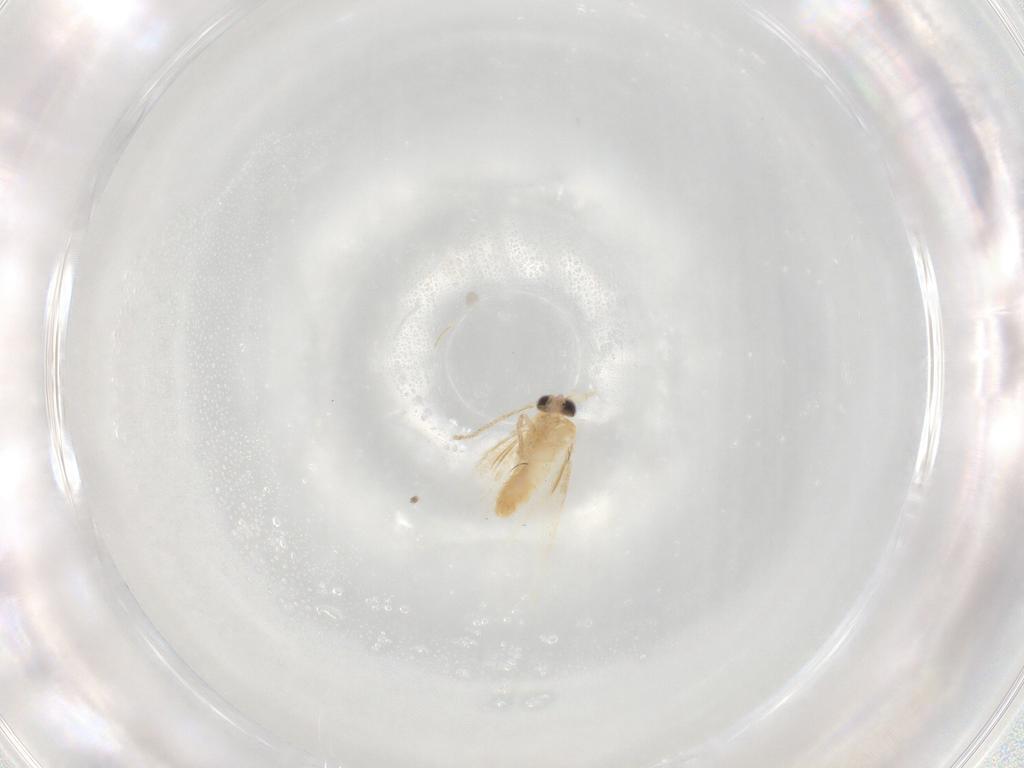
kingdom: Animalia
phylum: Arthropoda
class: Insecta
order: Lepidoptera
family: Nepticulidae
